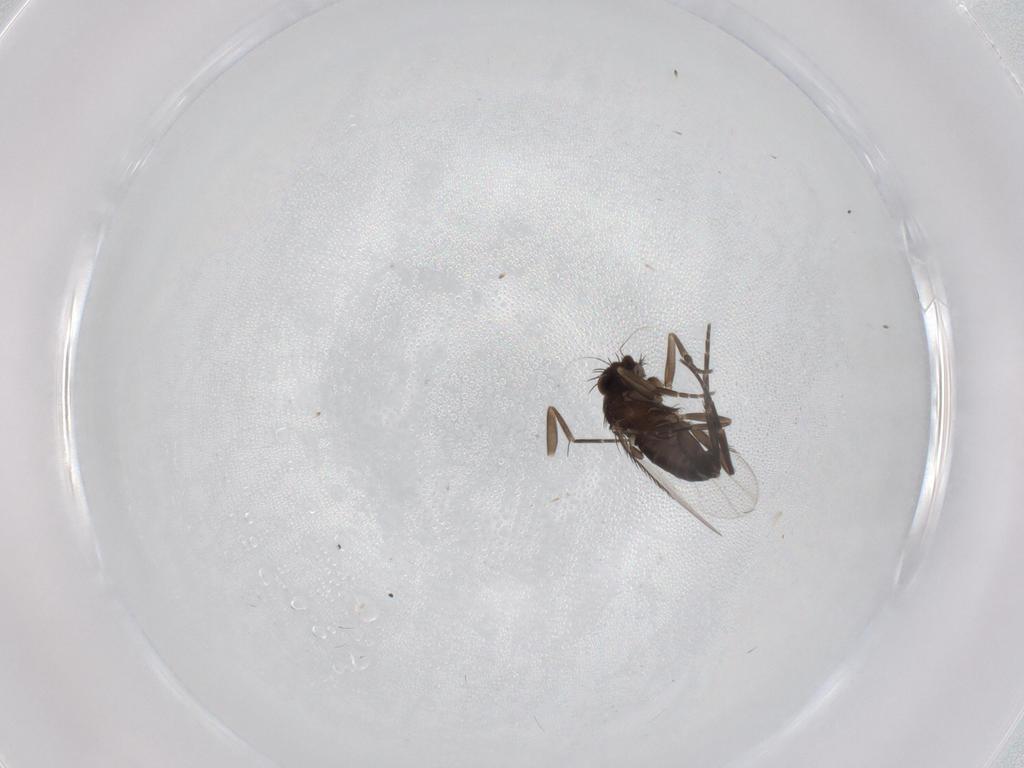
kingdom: Animalia
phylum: Arthropoda
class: Insecta
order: Diptera
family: Phoridae
